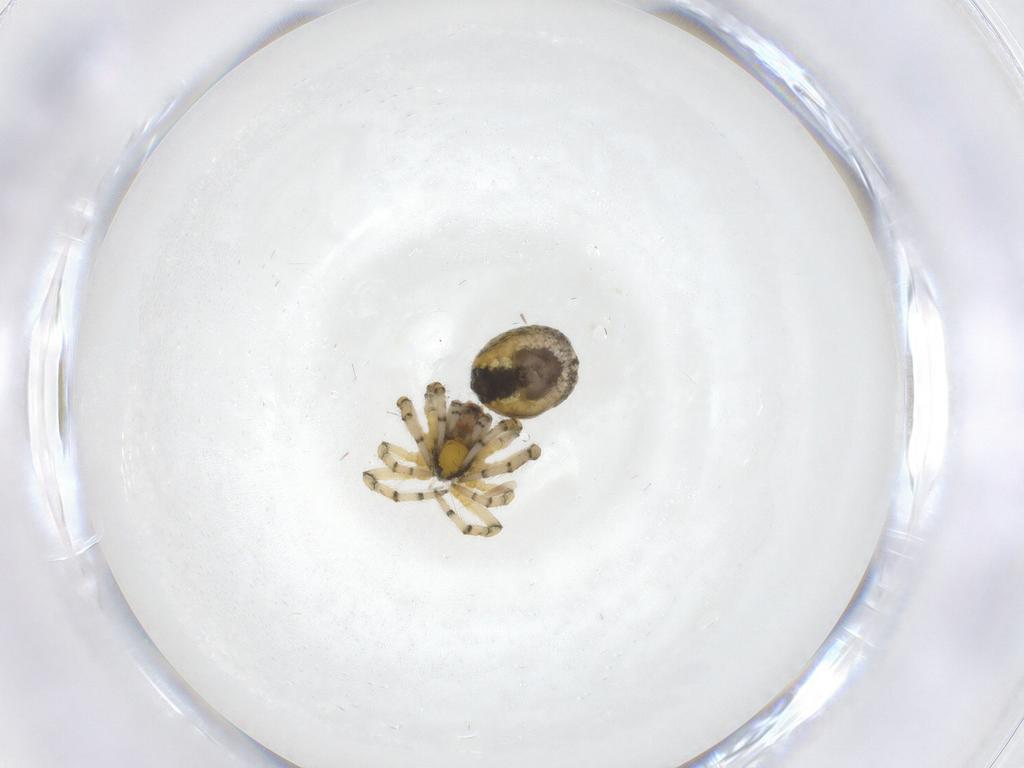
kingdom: Animalia
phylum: Arthropoda
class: Arachnida
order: Araneae
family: Araneidae
